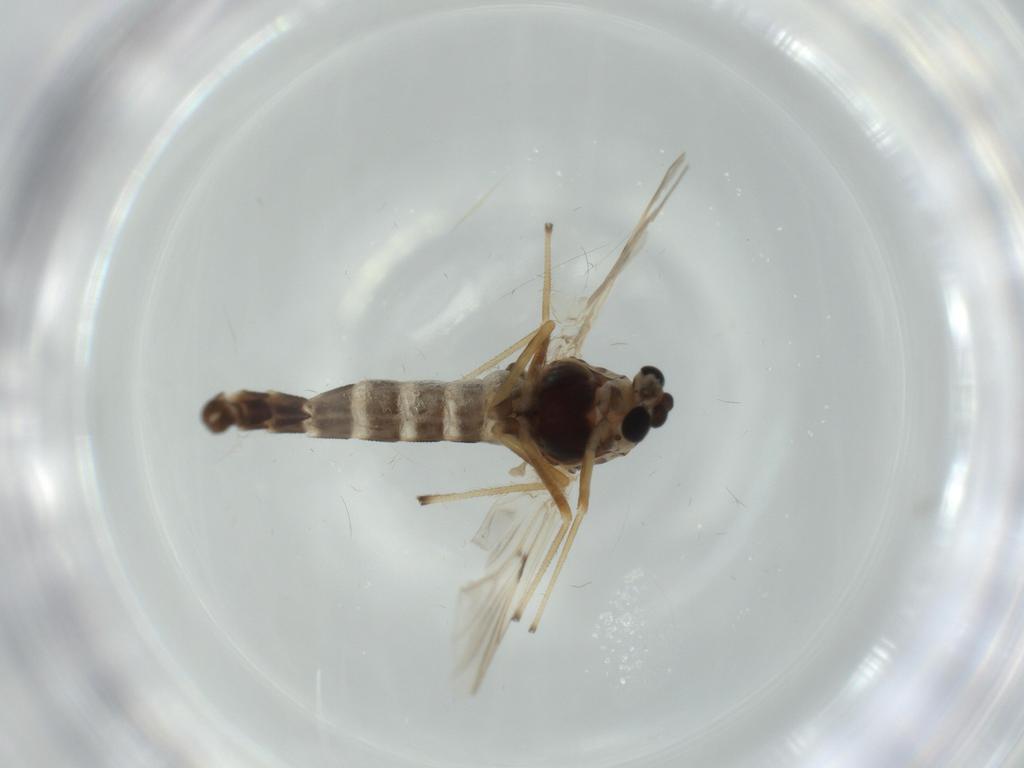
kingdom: Animalia
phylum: Arthropoda
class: Insecta
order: Diptera
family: Chironomidae
